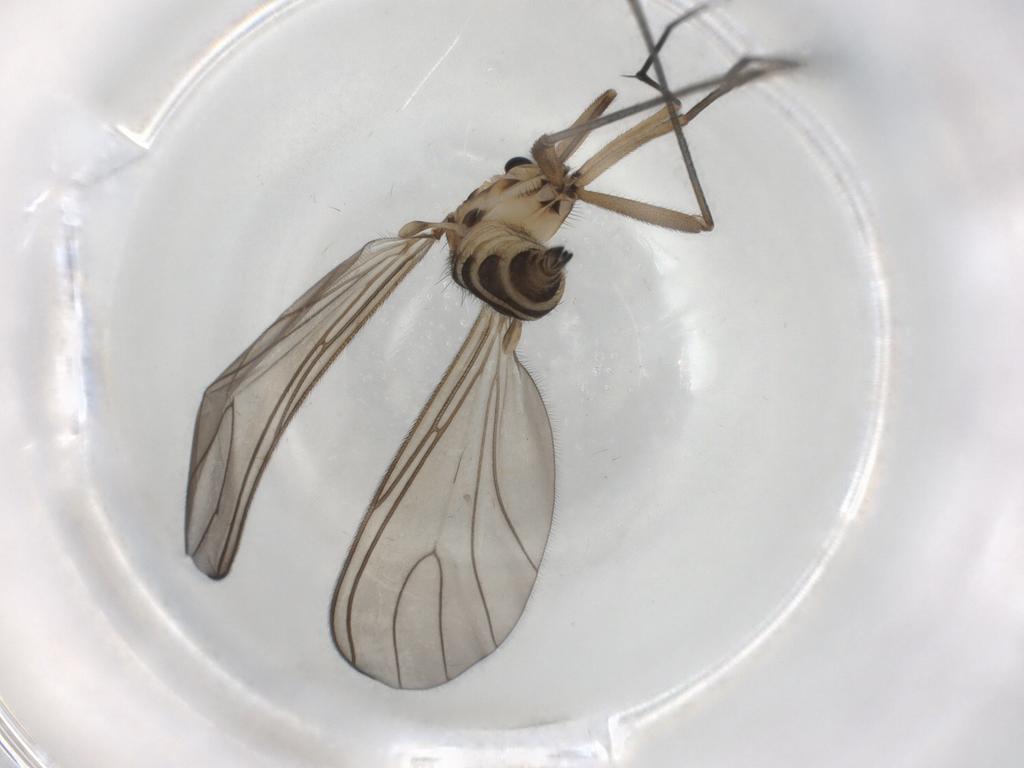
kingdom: Animalia
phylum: Arthropoda
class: Insecta
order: Diptera
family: Sciaridae
